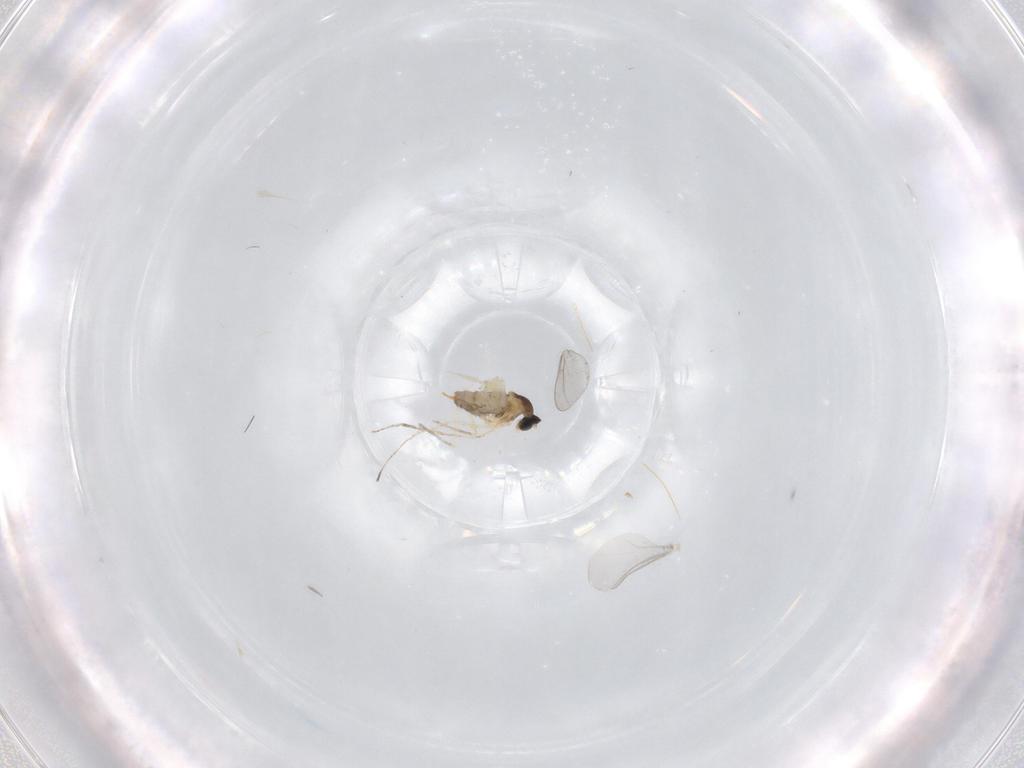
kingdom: Animalia
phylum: Arthropoda
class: Insecta
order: Diptera
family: Cecidomyiidae
